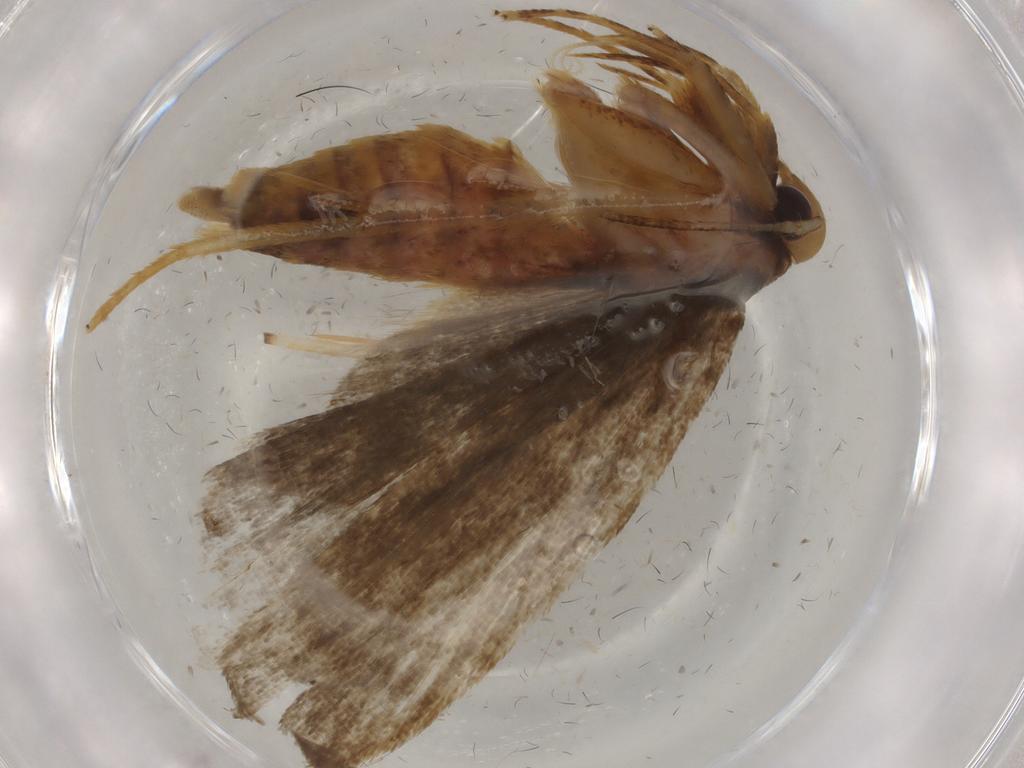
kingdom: Animalia
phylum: Arthropoda
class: Insecta
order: Lepidoptera
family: Autostichidae
